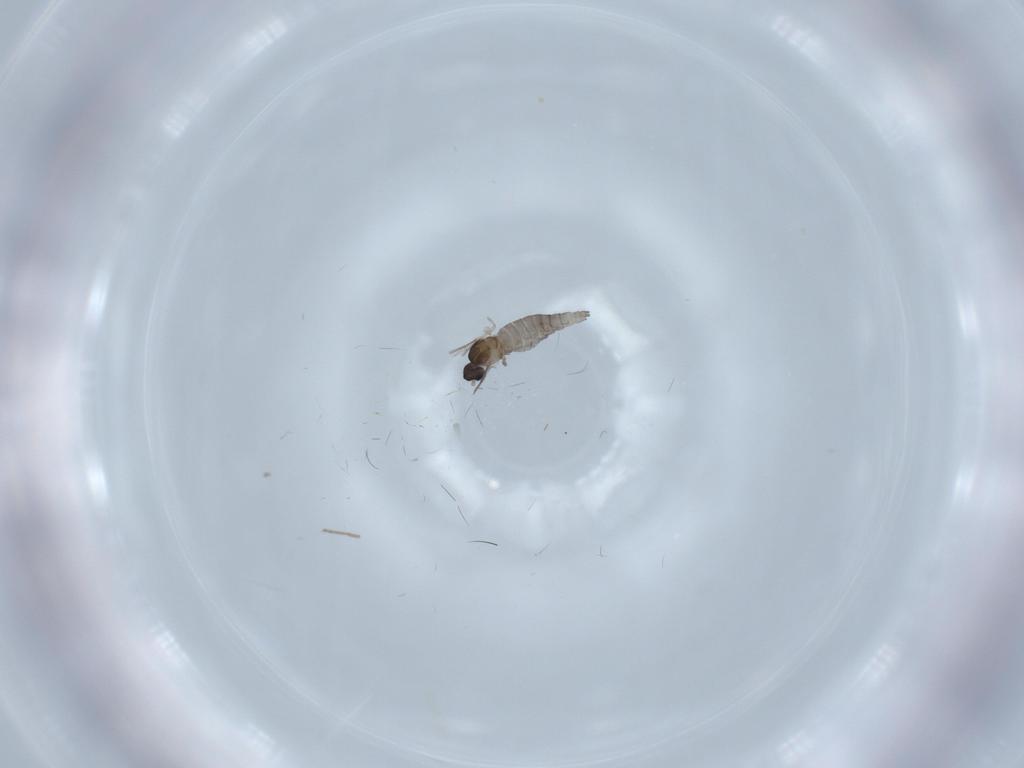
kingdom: Animalia
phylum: Arthropoda
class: Insecta
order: Diptera
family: Cecidomyiidae
